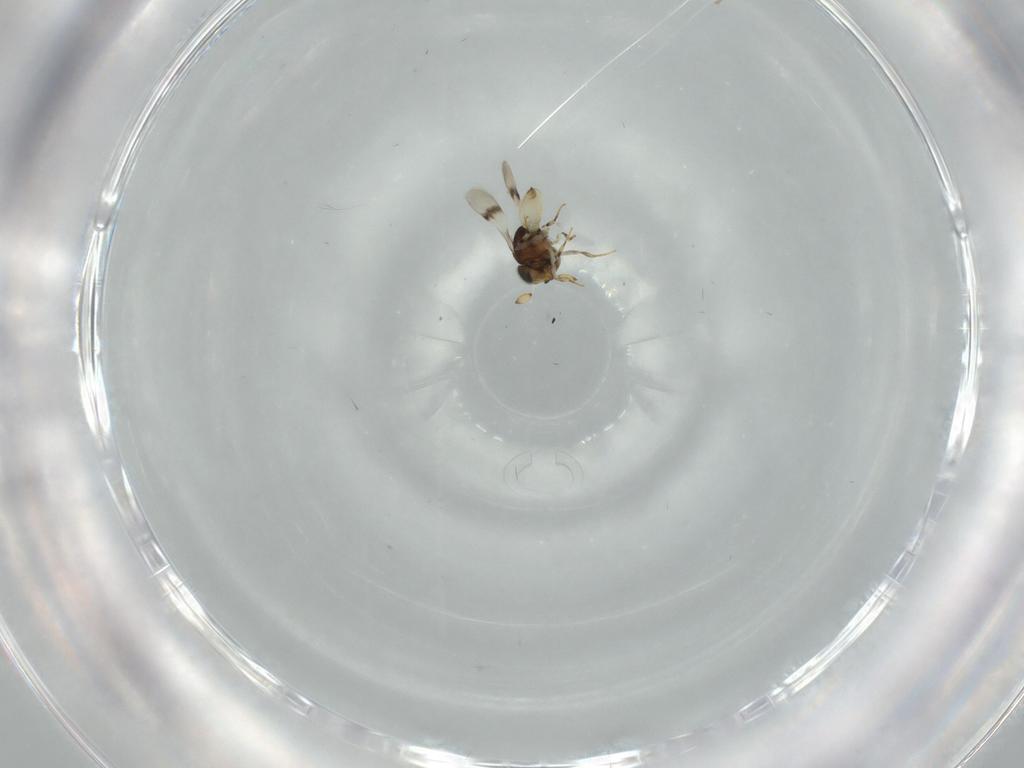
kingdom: Animalia
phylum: Arthropoda
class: Insecta
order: Hymenoptera
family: Scelionidae
